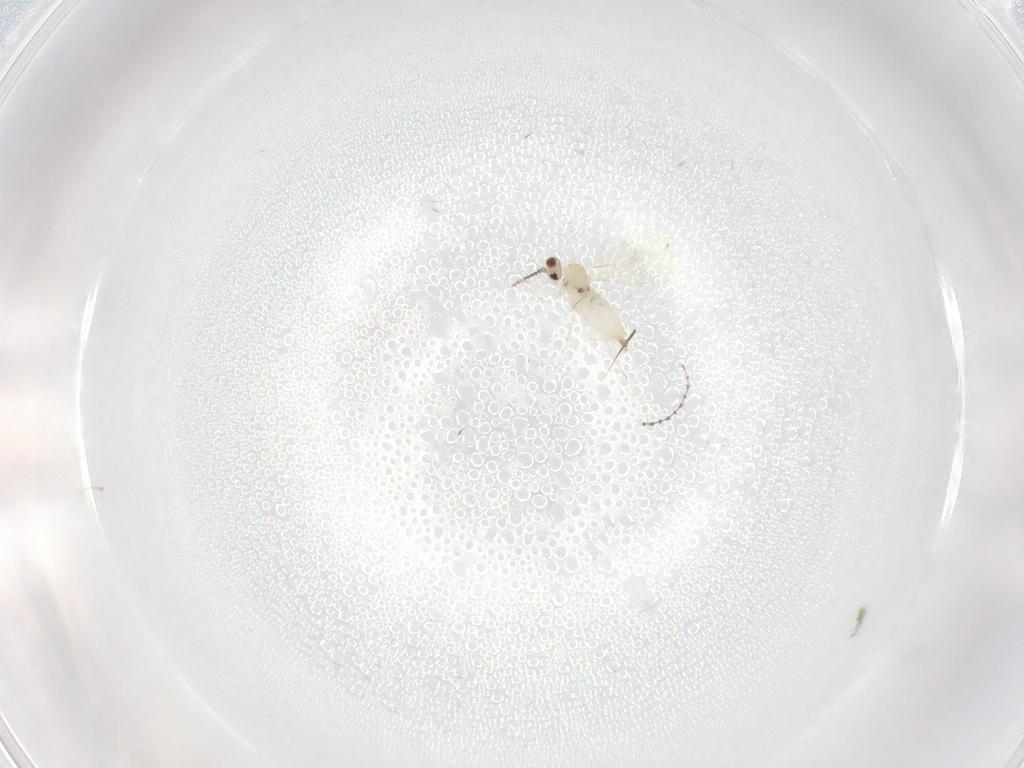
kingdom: Animalia
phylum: Arthropoda
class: Insecta
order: Diptera
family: Cecidomyiidae
